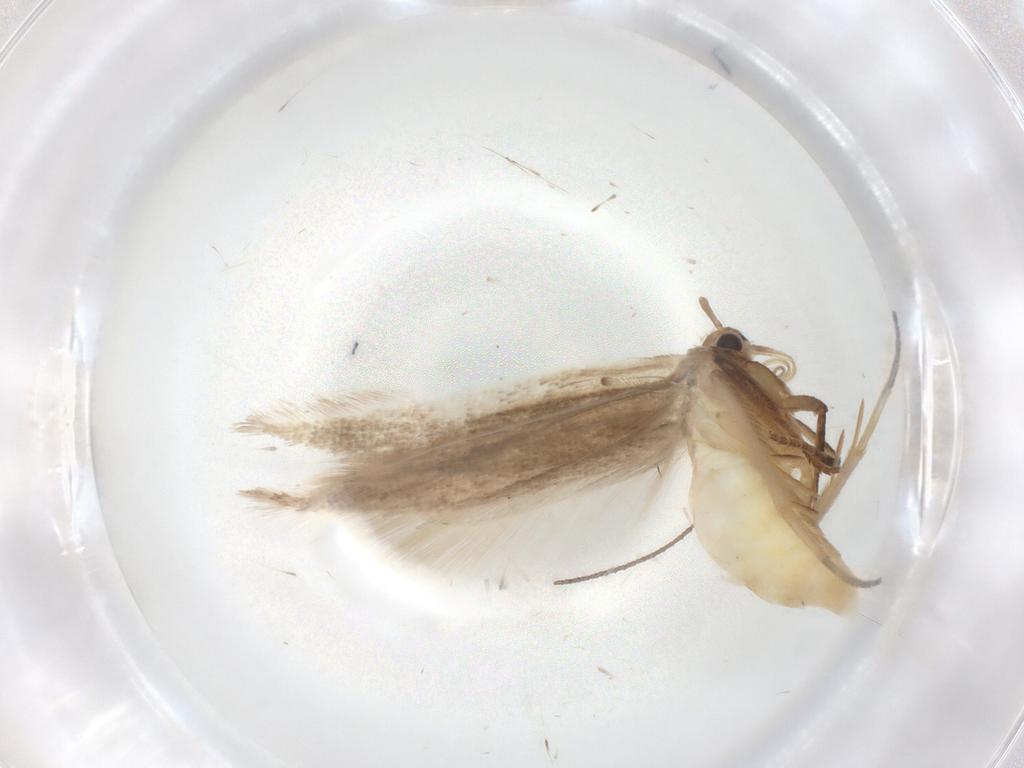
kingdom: Animalia
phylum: Arthropoda
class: Insecta
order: Lepidoptera
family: Gelechiidae
